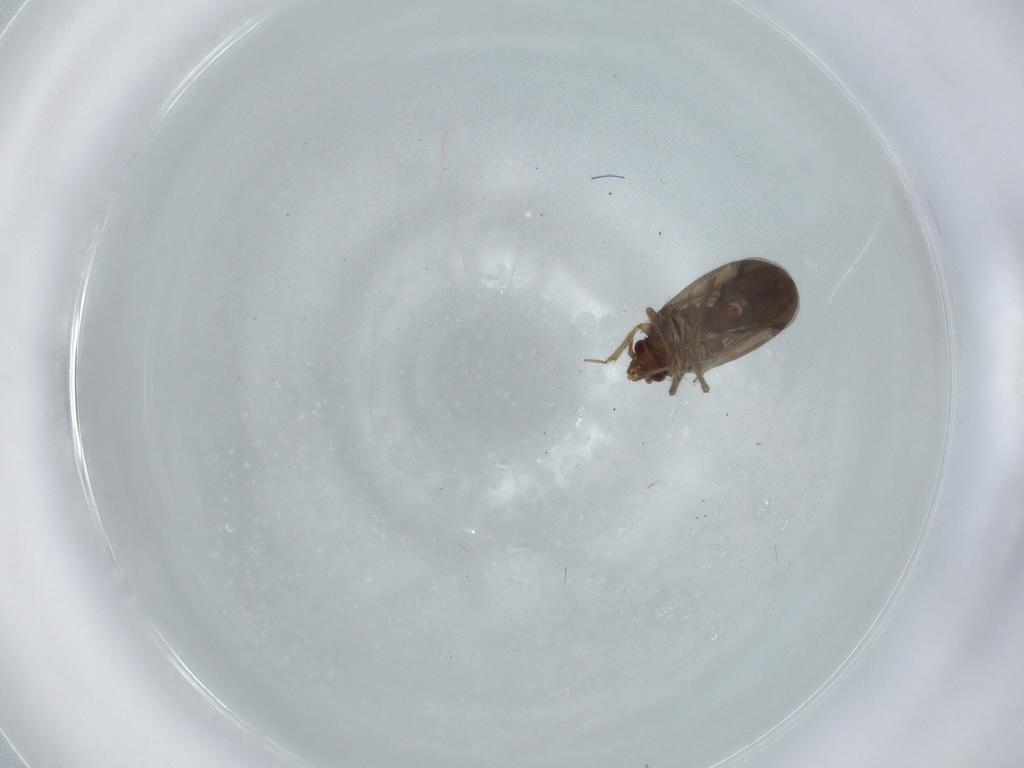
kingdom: Animalia
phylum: Arthropoda
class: Insecta
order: Hemiptera
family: Ceratocombidae
